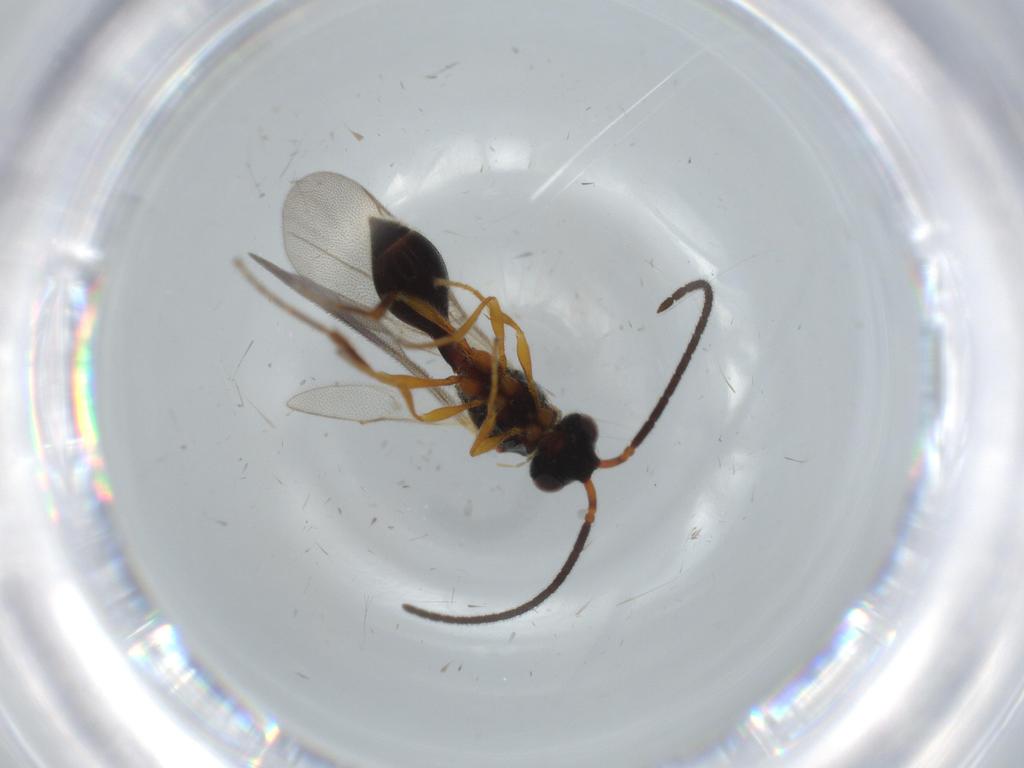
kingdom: Animalia
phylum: Arthropoda
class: Insecta
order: Hymenoptera
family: Diapriidae
